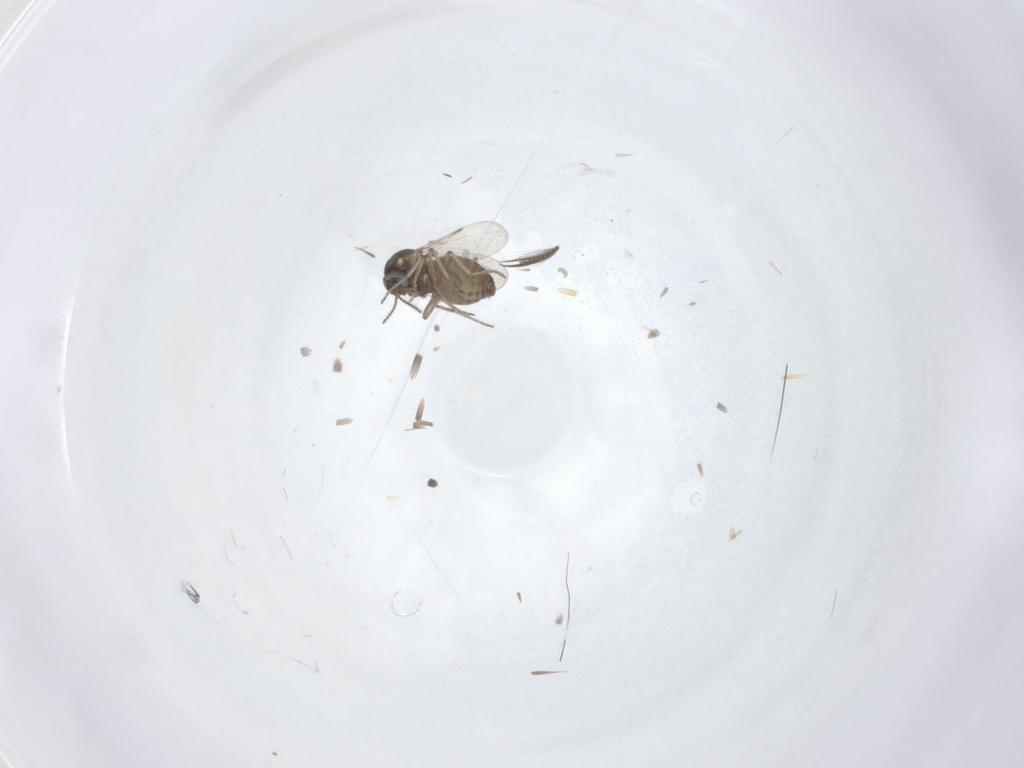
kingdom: Animalia
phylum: Arthropoda
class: Insecta
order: Diptera
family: Ceratopogonidae
